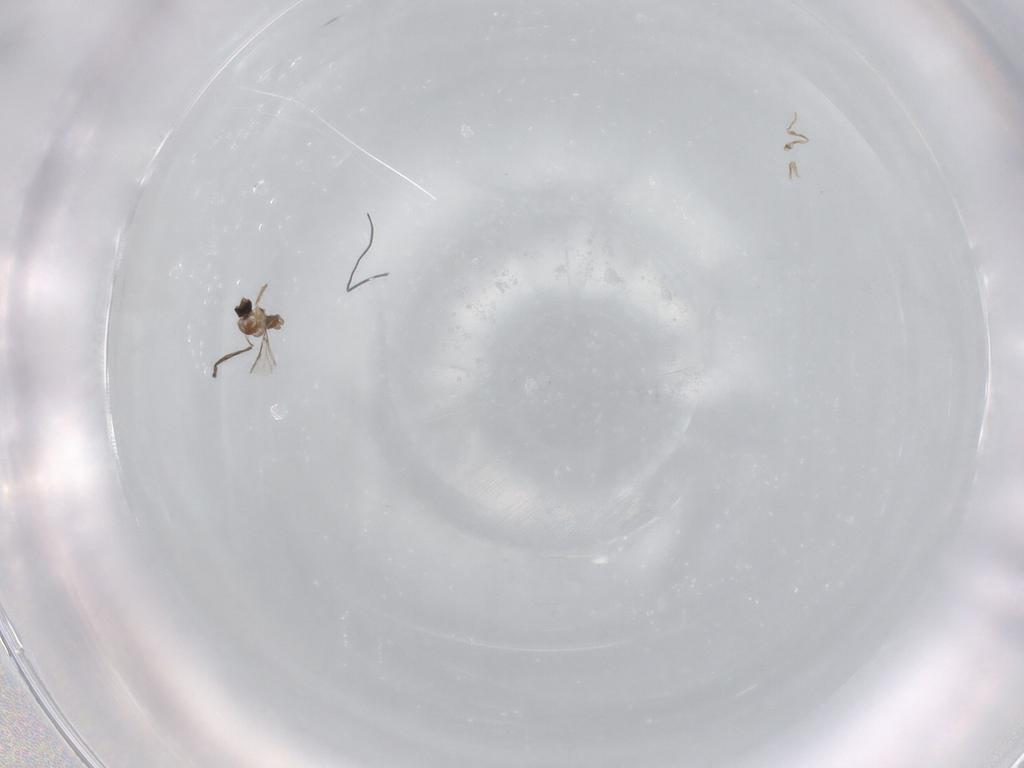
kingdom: Animalia
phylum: Arthropoda
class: Insecta
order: Diptera
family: Cecidomyiidae
